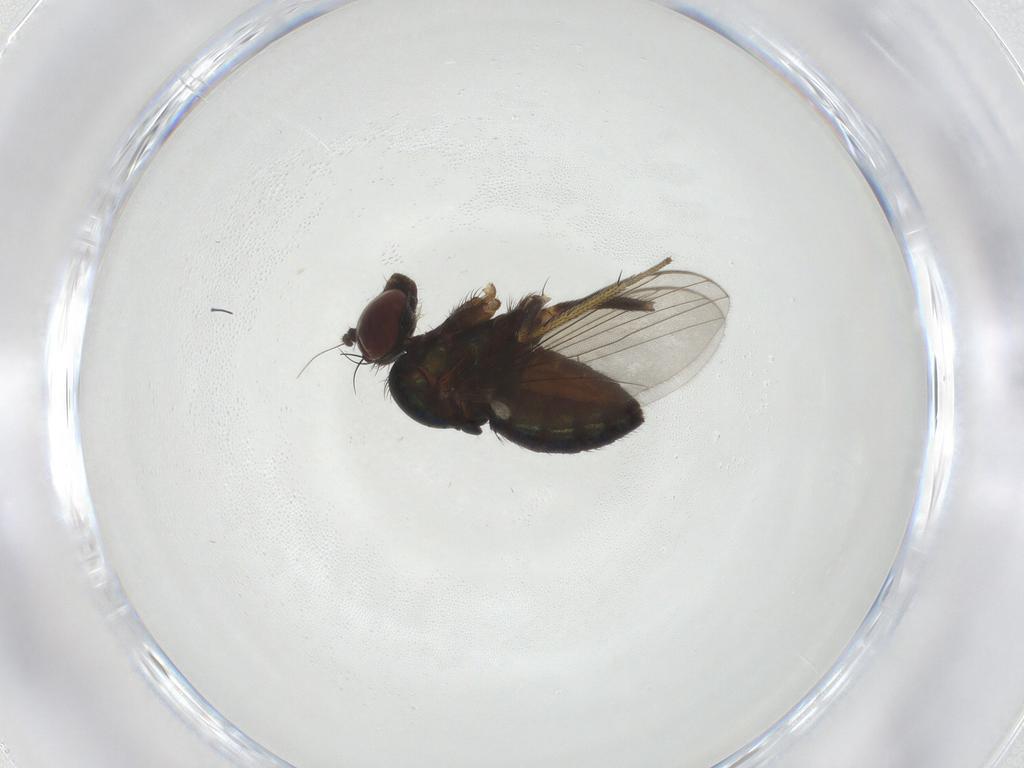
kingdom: Animalia
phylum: Arthropoda
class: Insecta
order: Diptera
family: Dolichopodidae
